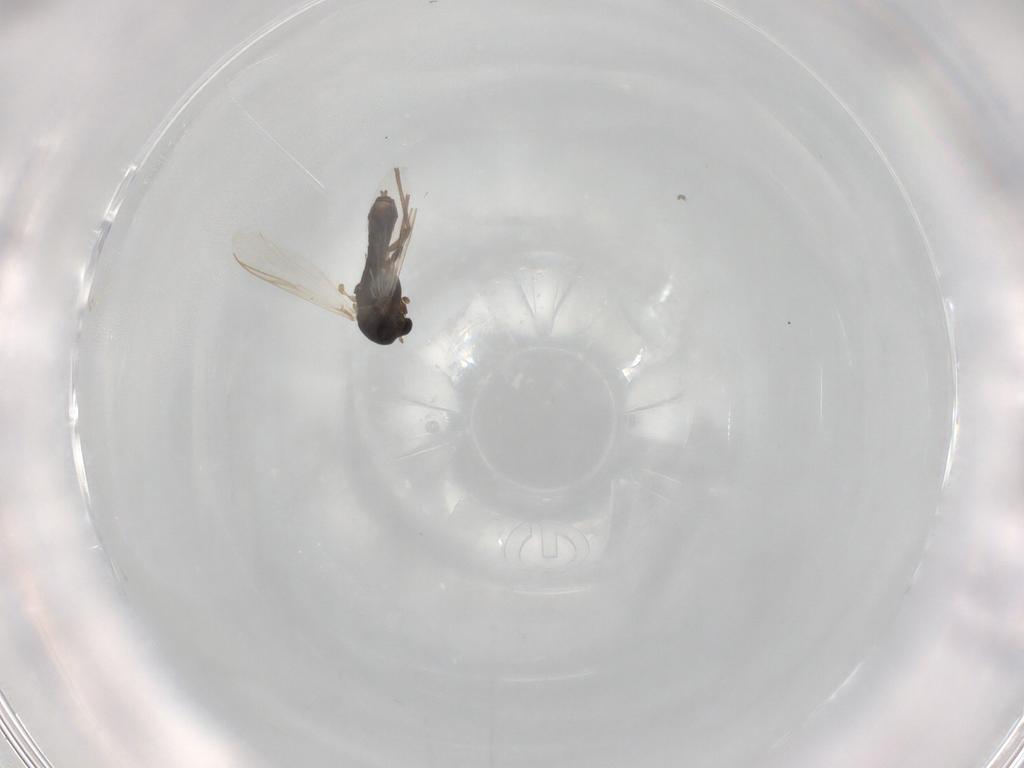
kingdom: Animalia
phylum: Arthropoda
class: Insecta
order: Diptera
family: Chironomidae
